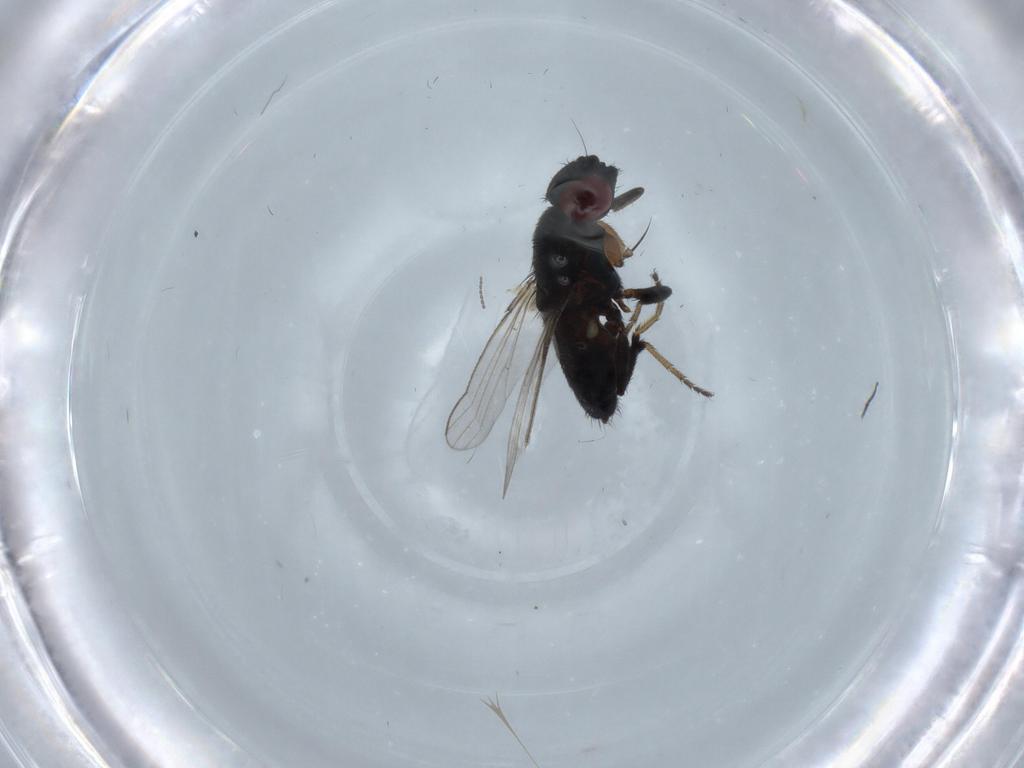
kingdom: Animalia
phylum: Arthropoda
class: Insecta
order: Diptera
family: Milichiidae
